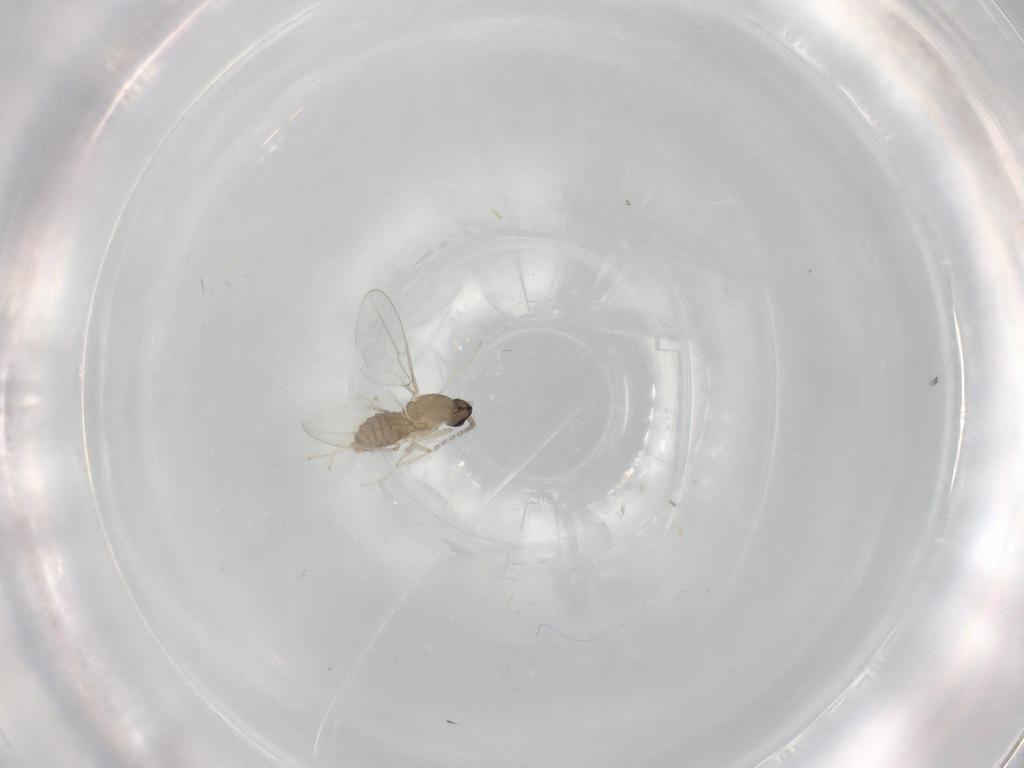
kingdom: Animalia
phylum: Arthropoda
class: Insecta
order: Diptera
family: Cecidomyiidae
